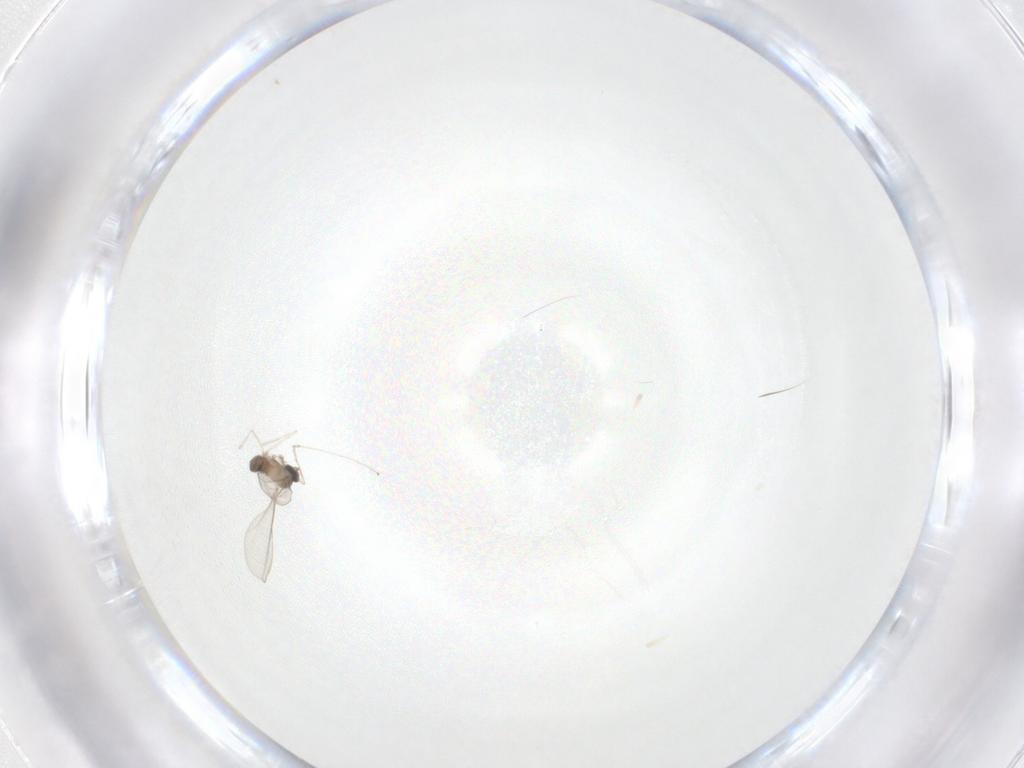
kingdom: Animalia
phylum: Arthropoda
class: Insecta
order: Diptera
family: Cecidomyiidae
